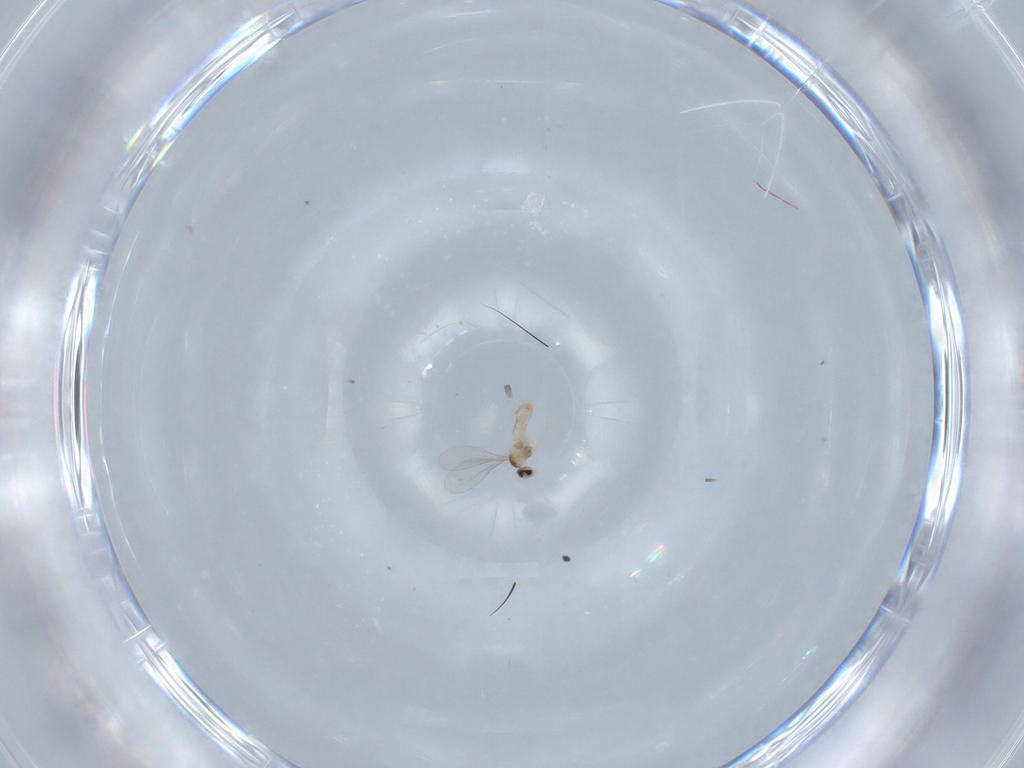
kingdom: Animalia
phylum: Arthropoda
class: Insecta
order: Diptera
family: Cecidomyiidae
